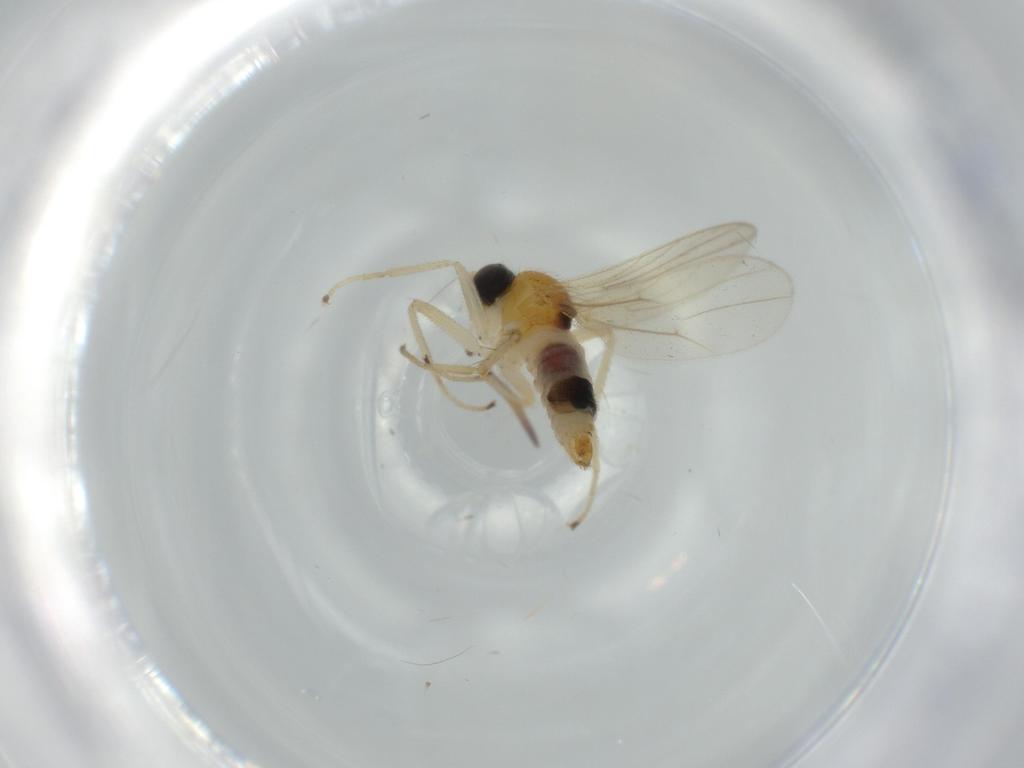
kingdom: Animalia
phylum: Arthropoda
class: Insecta
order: Diptera
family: Hybotidae
